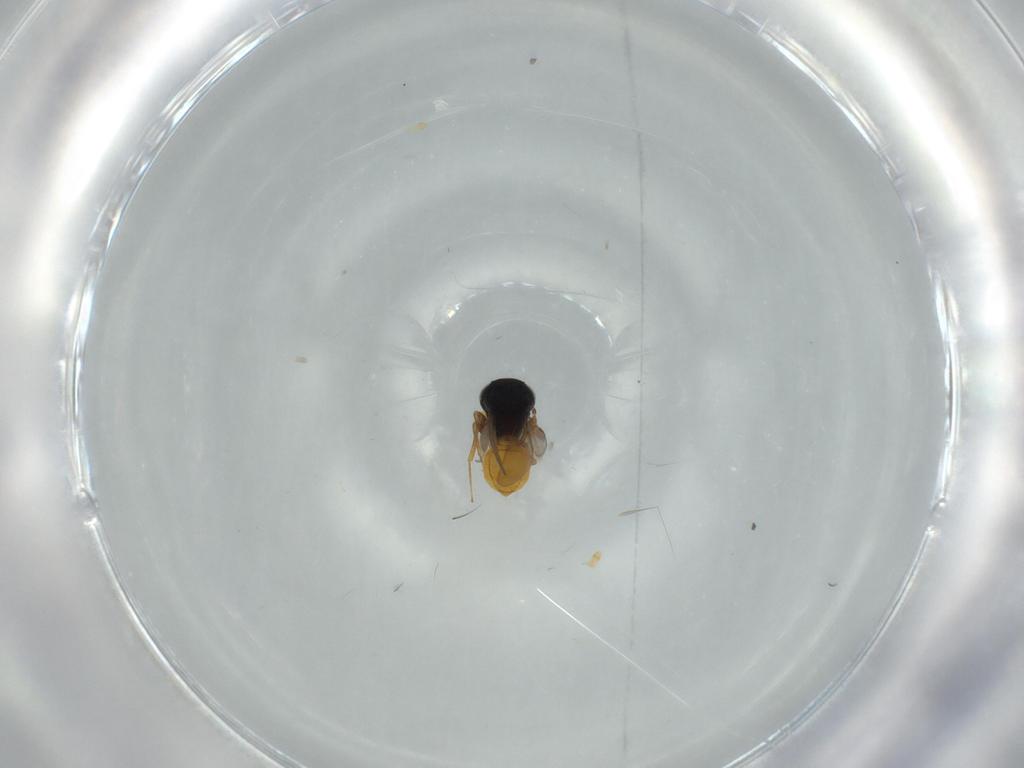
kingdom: Animalia
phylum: Arthropoda
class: Insecta
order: Hymenoptera
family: Scelionidae
